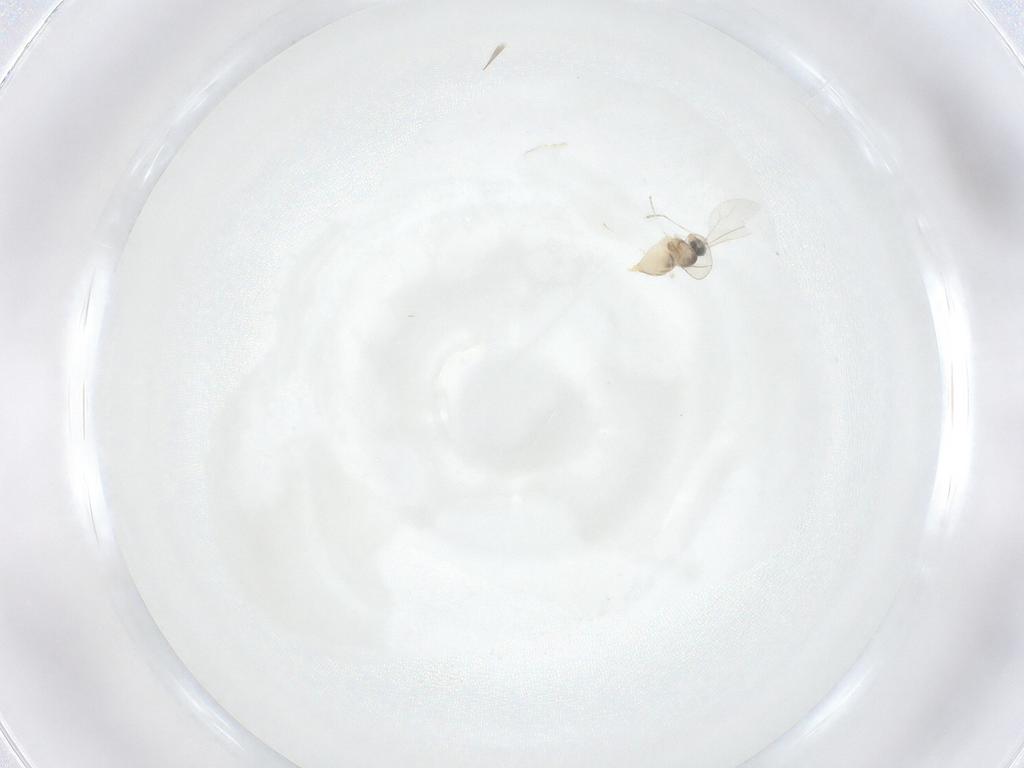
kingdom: Animalia
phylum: Arthropoda
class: Insecta
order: Diptera
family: Cecidomyiidae
